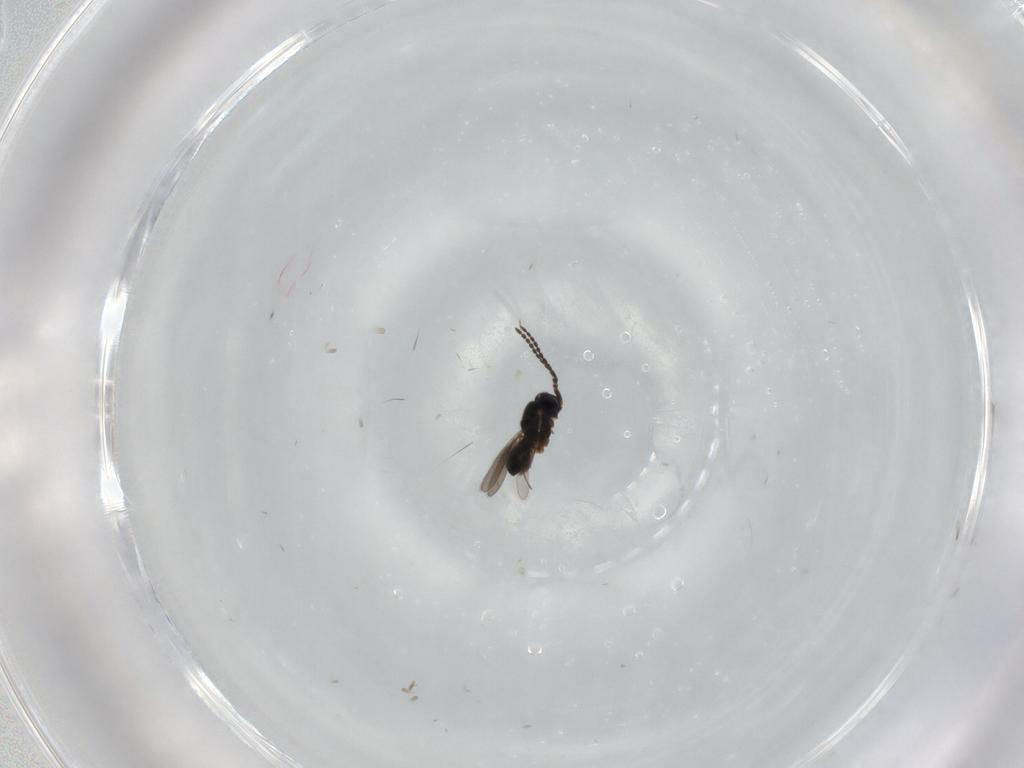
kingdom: Animalia
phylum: Arthropoda
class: Insecta
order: Hymenoptera
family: Scelionidae
